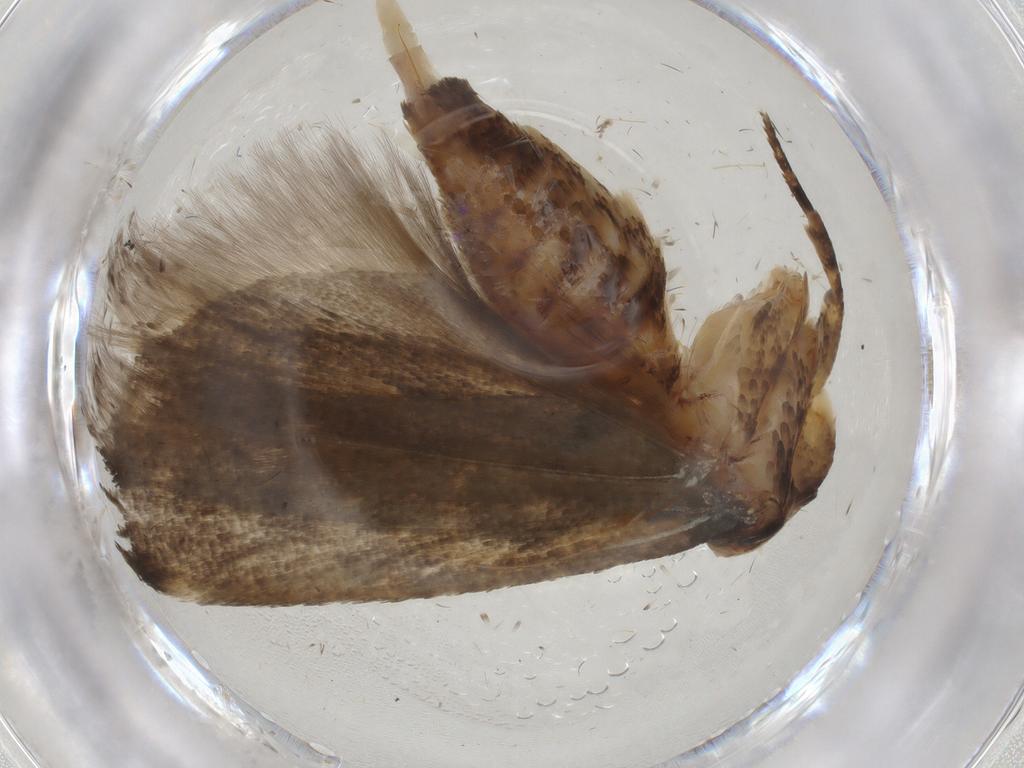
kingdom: Animalia
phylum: Arthropoda
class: Insecta
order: Lepidoptera
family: Gelechiidae
